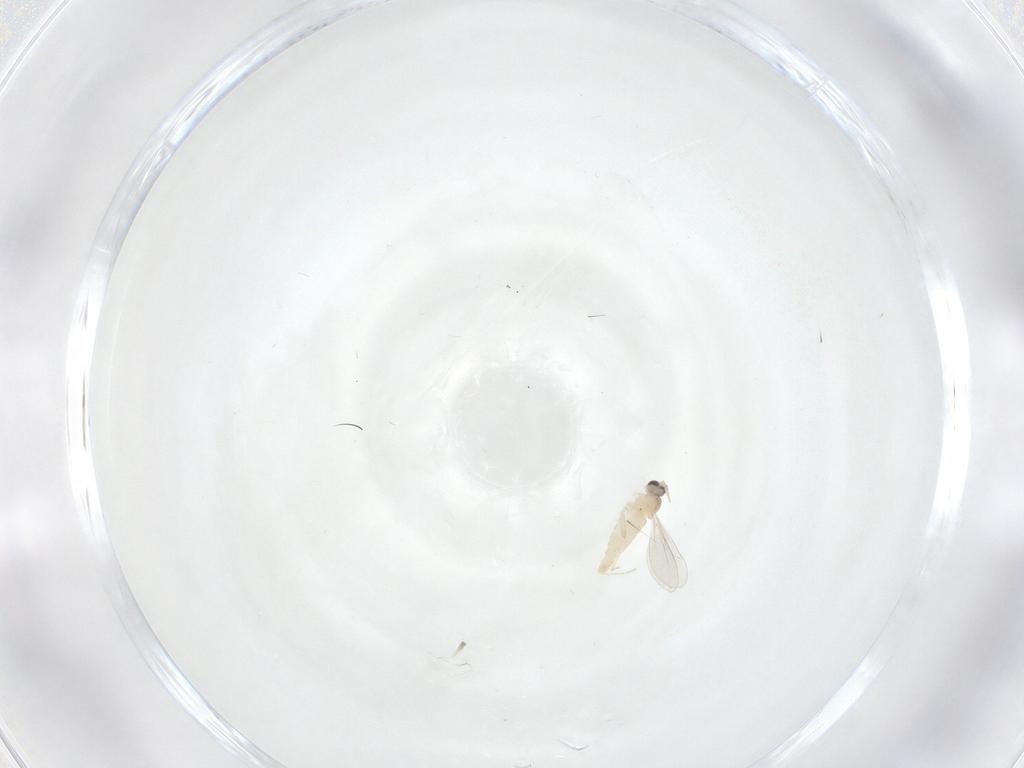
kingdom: Animalia
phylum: Arthropoda
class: Insecta
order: Diptera
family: Cecidomyiidae
